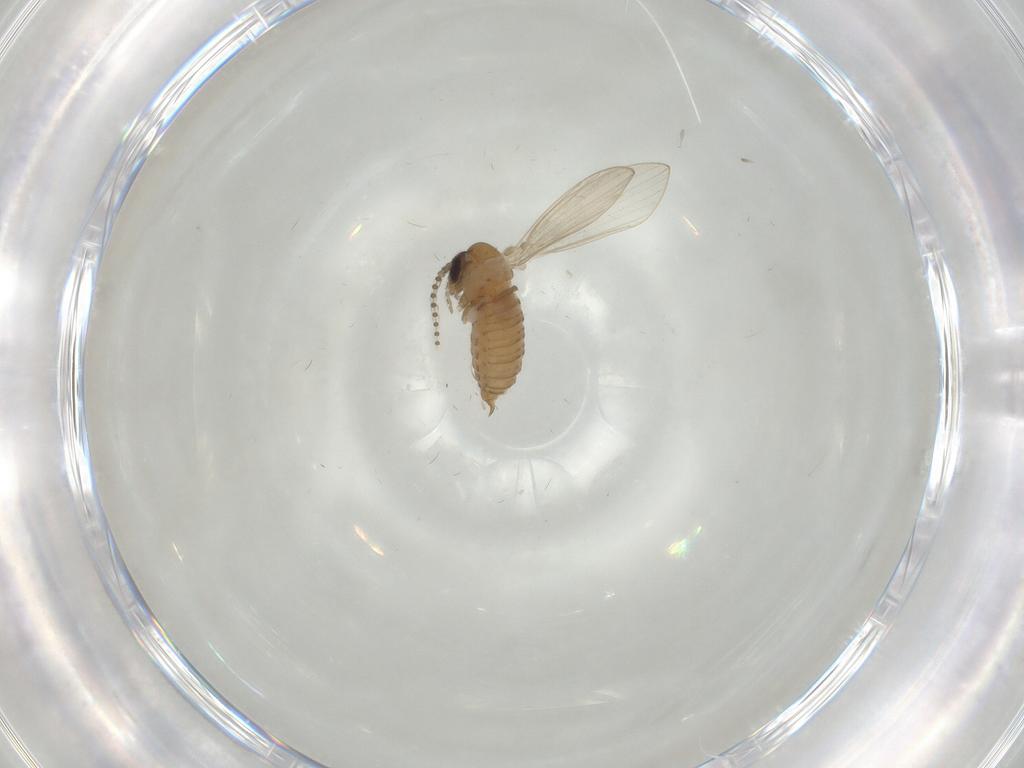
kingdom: Animalia
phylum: Arthropoda
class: Insecta
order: Diptera
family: Psychodidae
